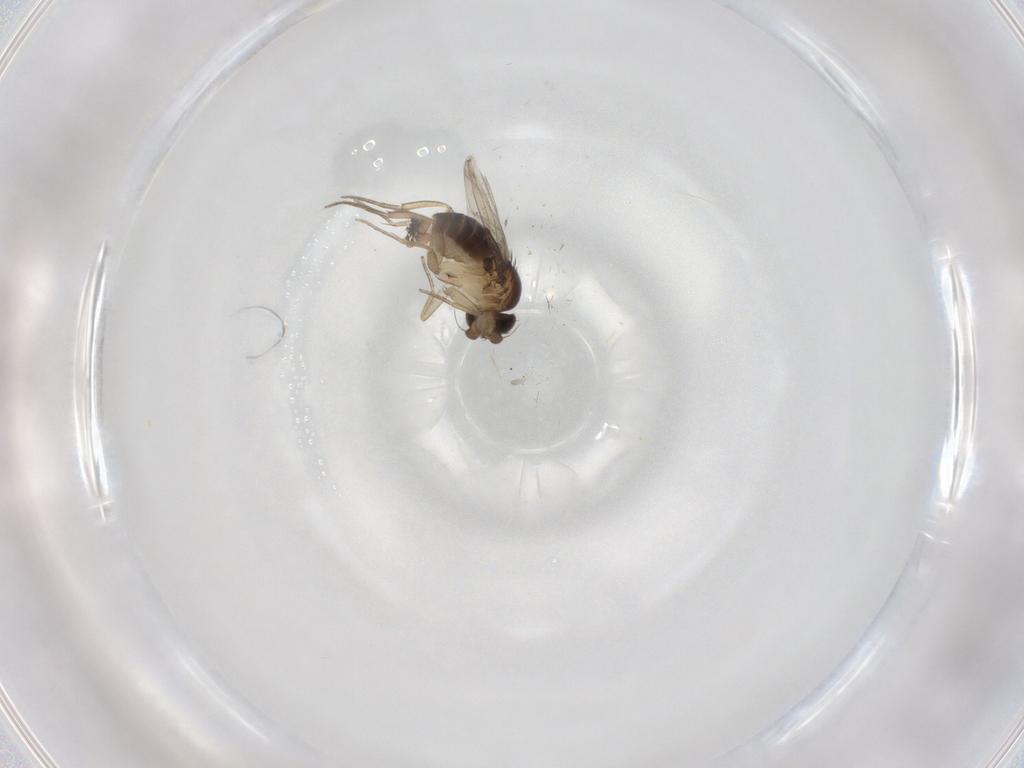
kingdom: Animalia
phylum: Arthropoda
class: Insecta
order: Diptera
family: Phoridae
